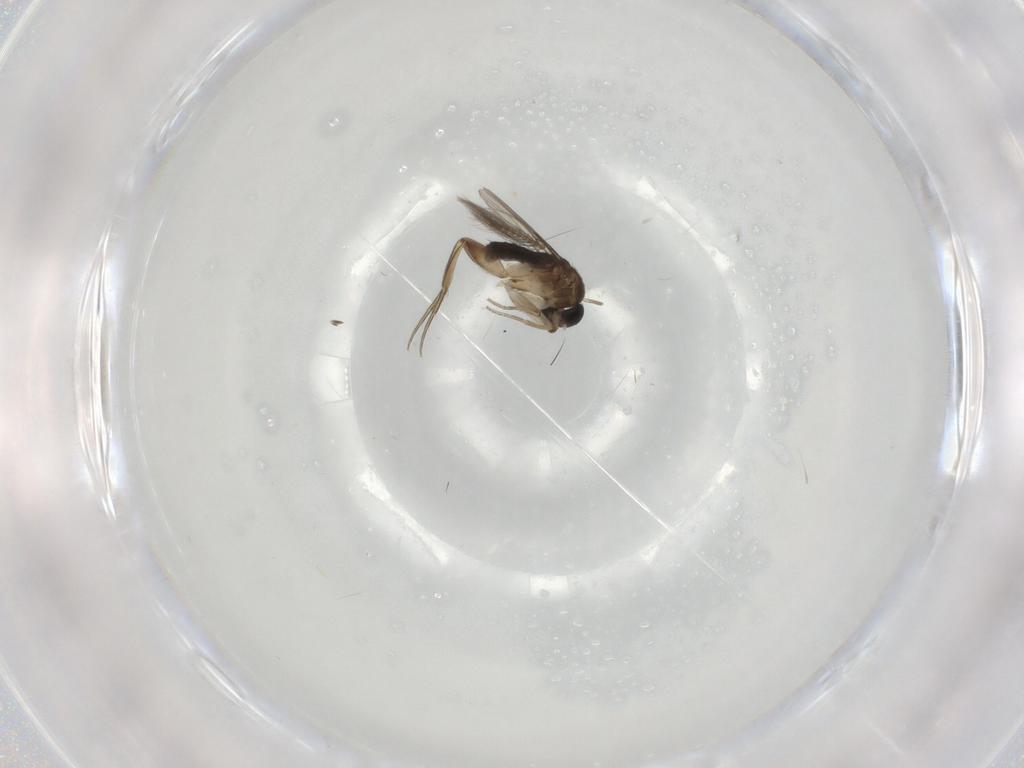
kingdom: Animalia
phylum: Arthropoda
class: Insecta
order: Diptera
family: Phoridae
